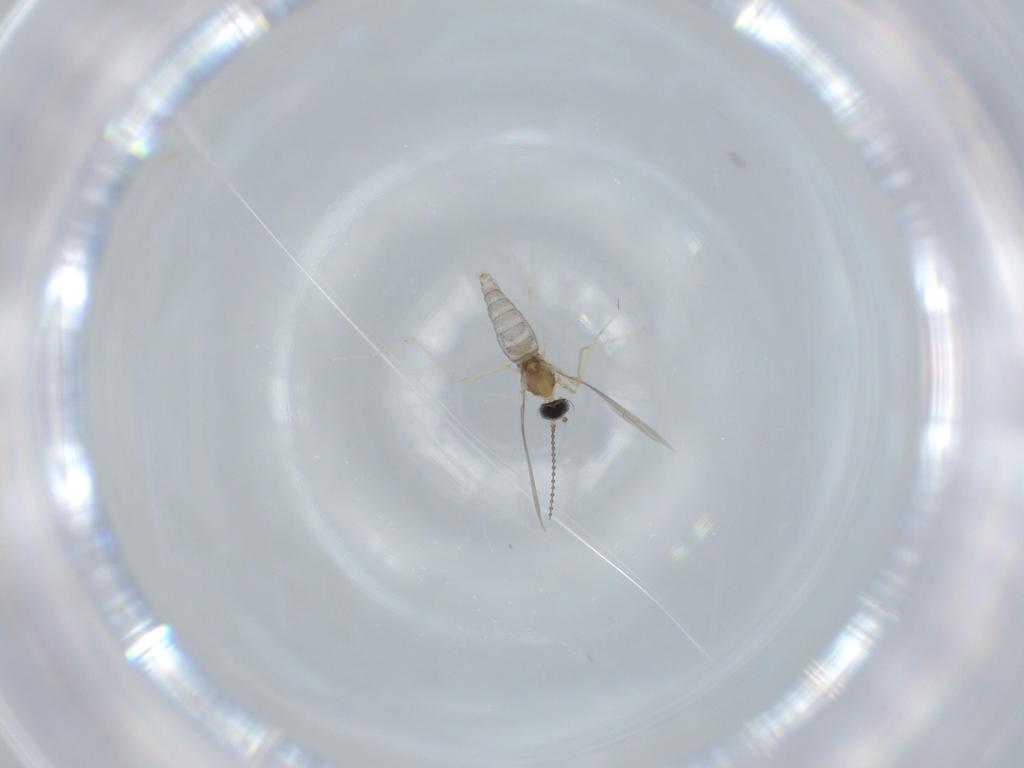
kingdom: Animalia
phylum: Arthropoda
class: Insecta
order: Diptera
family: Cecidomyiidae
